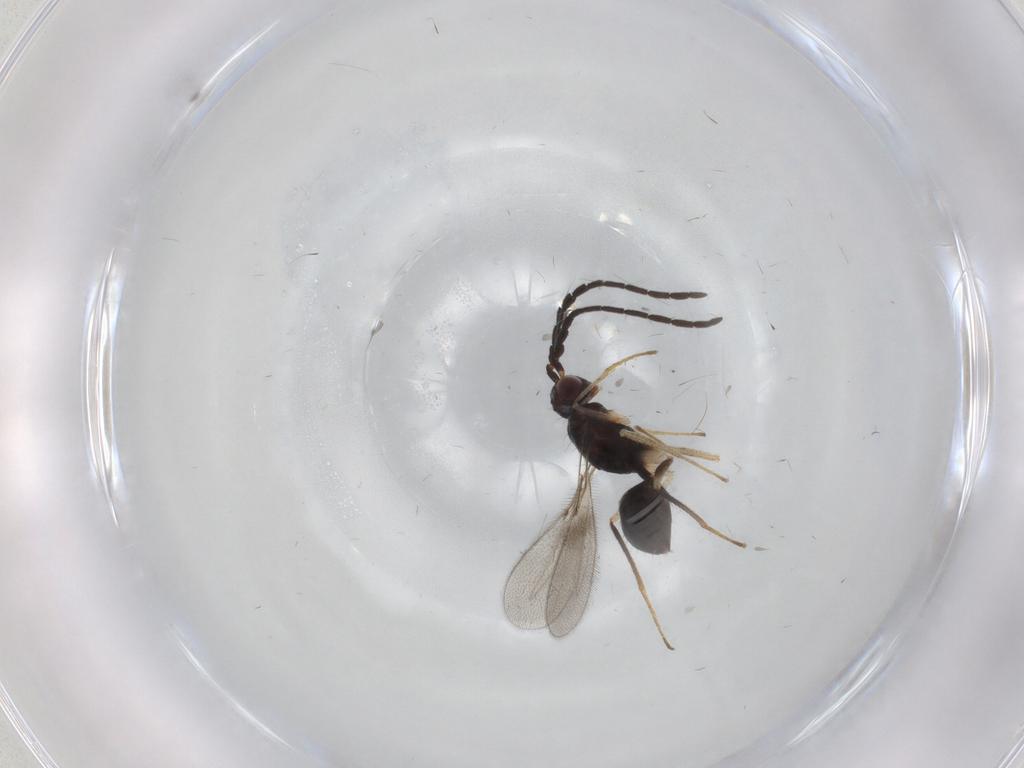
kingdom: Animalia
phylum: Arthropoda
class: Insecta
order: Hymenoptera
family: Mymaridae
